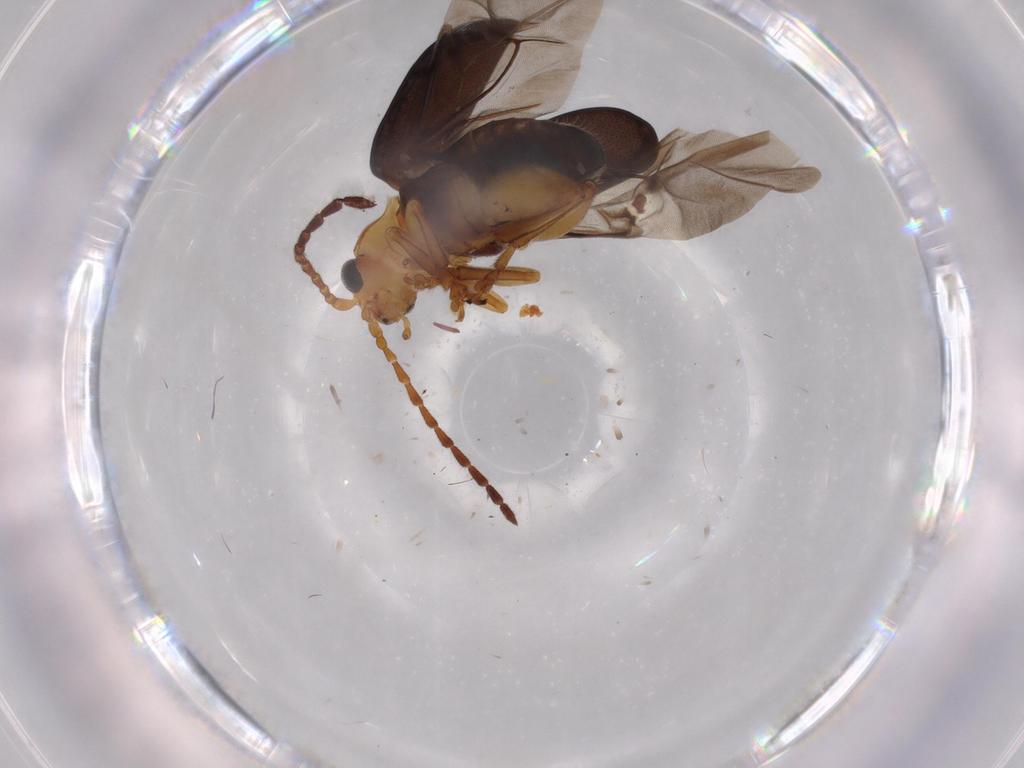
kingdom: Animalia
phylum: Arthropoda
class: Insecta
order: Coleoptera
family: Chrysomelidae
